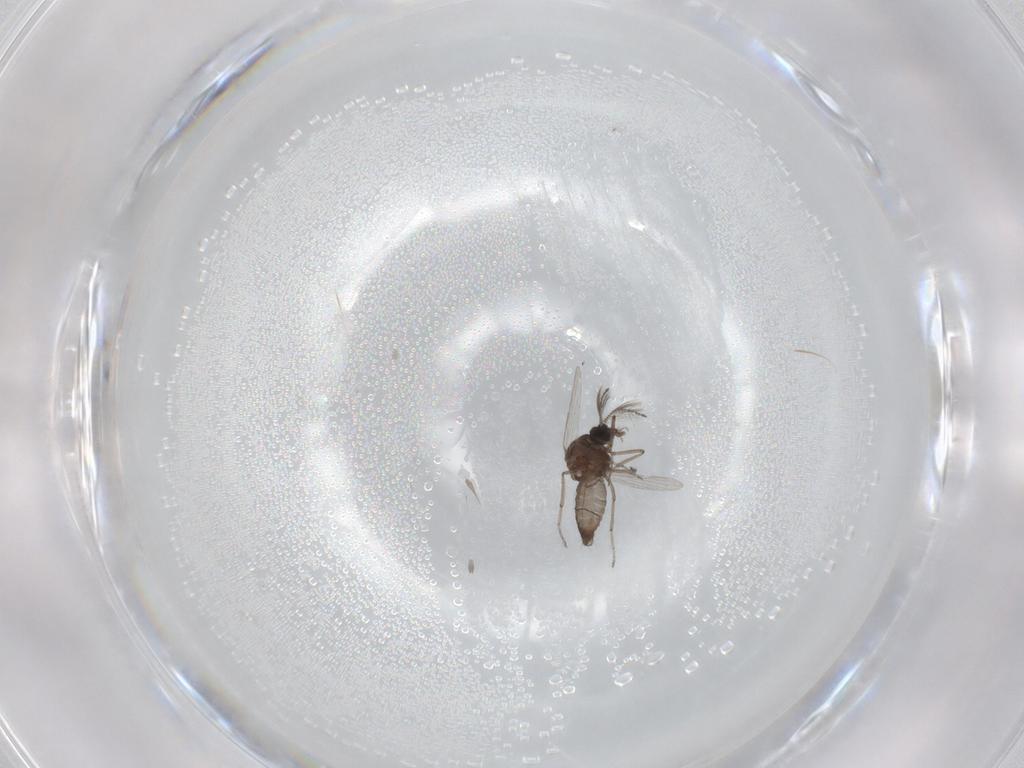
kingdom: Animalia
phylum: Arthropoda
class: Insecta
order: Diptera
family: Ceratopogonidae
